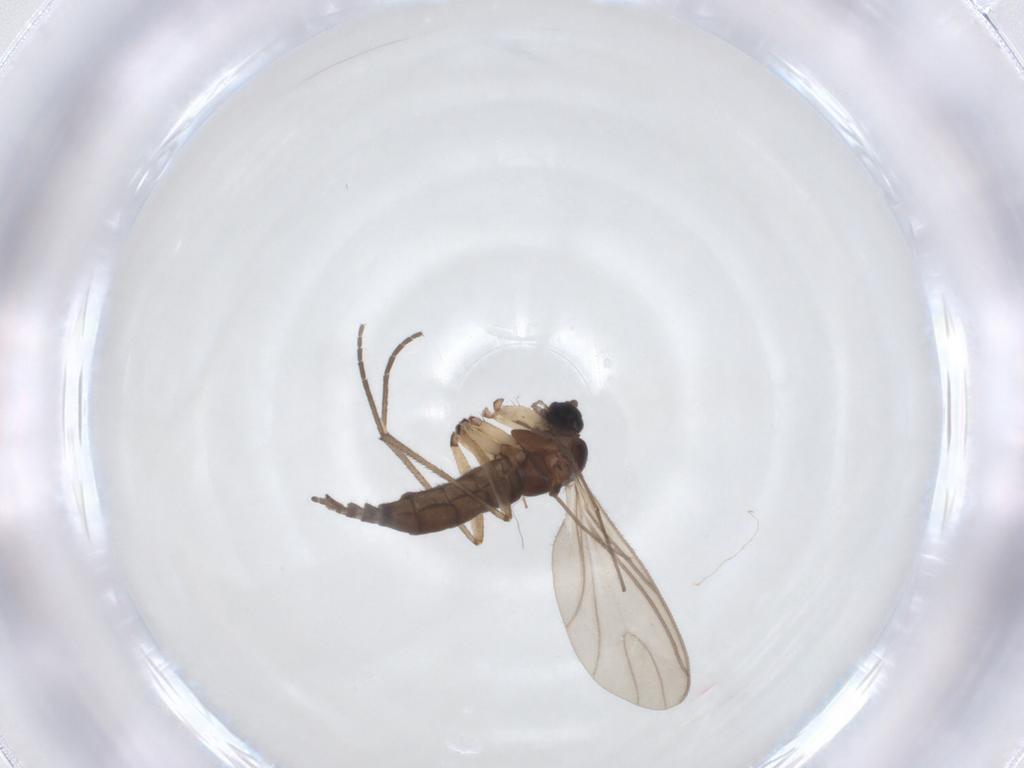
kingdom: Animalia
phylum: Arthropoda
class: Insecta
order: Diptera
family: Sciaridae
